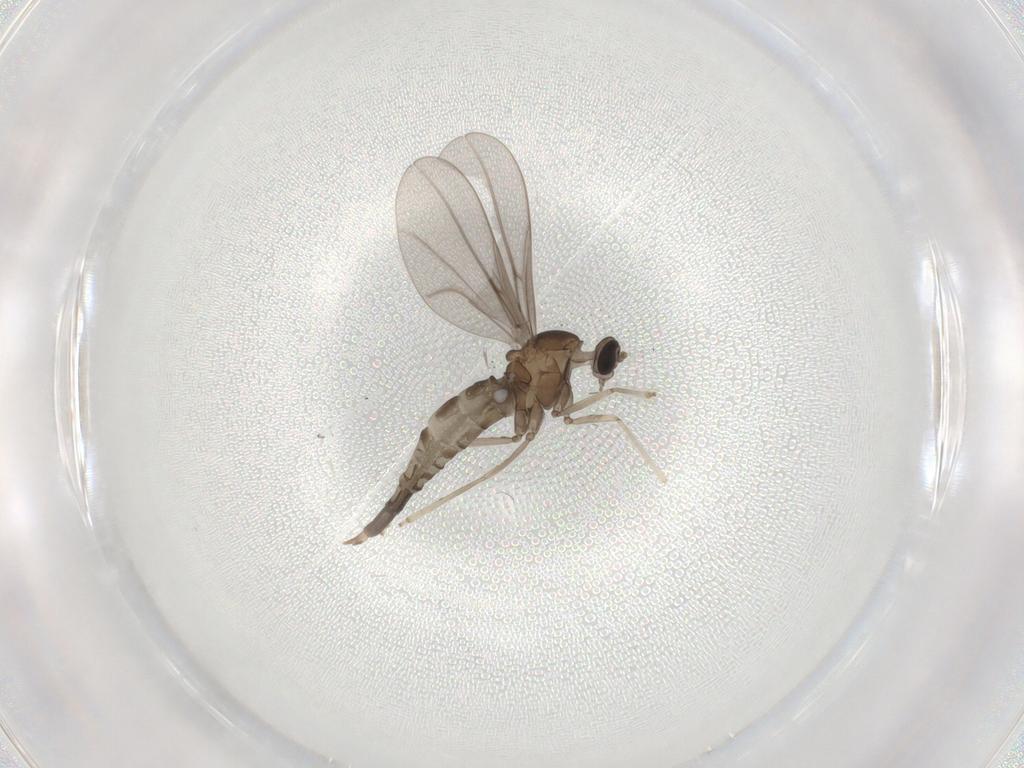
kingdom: Animalia
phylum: Arthropoda
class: Insecta
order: Diptera
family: Cecidomyiidae
